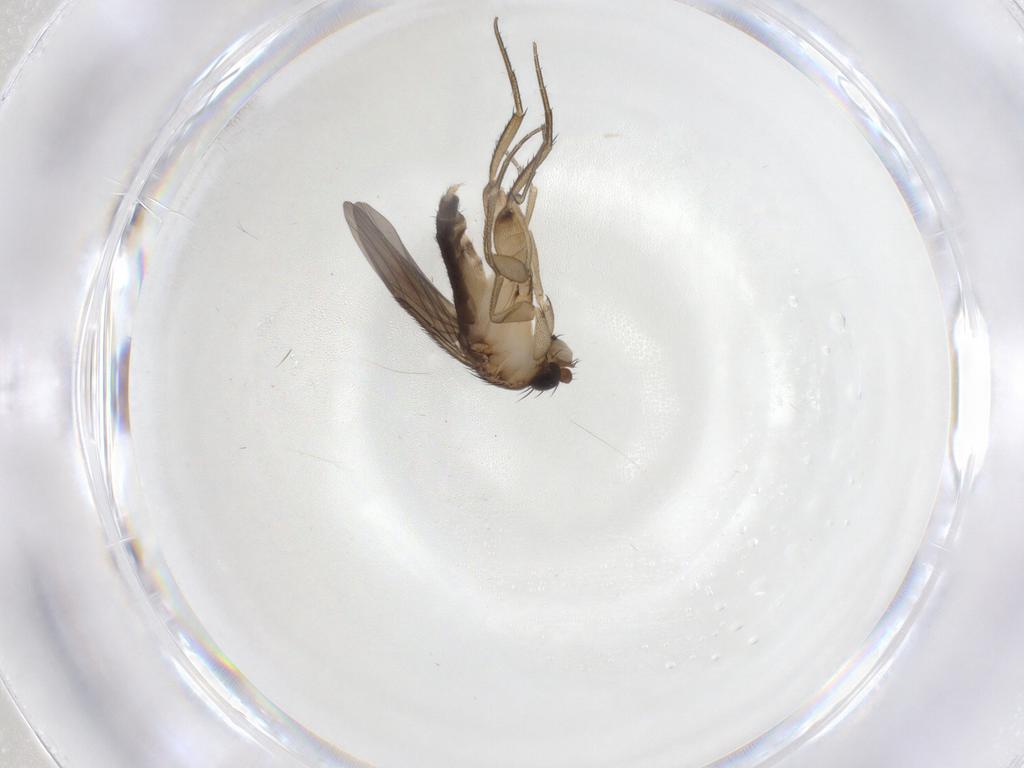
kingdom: Animalia
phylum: Arthropoda
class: Insecta
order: Diptera
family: Phoridae
